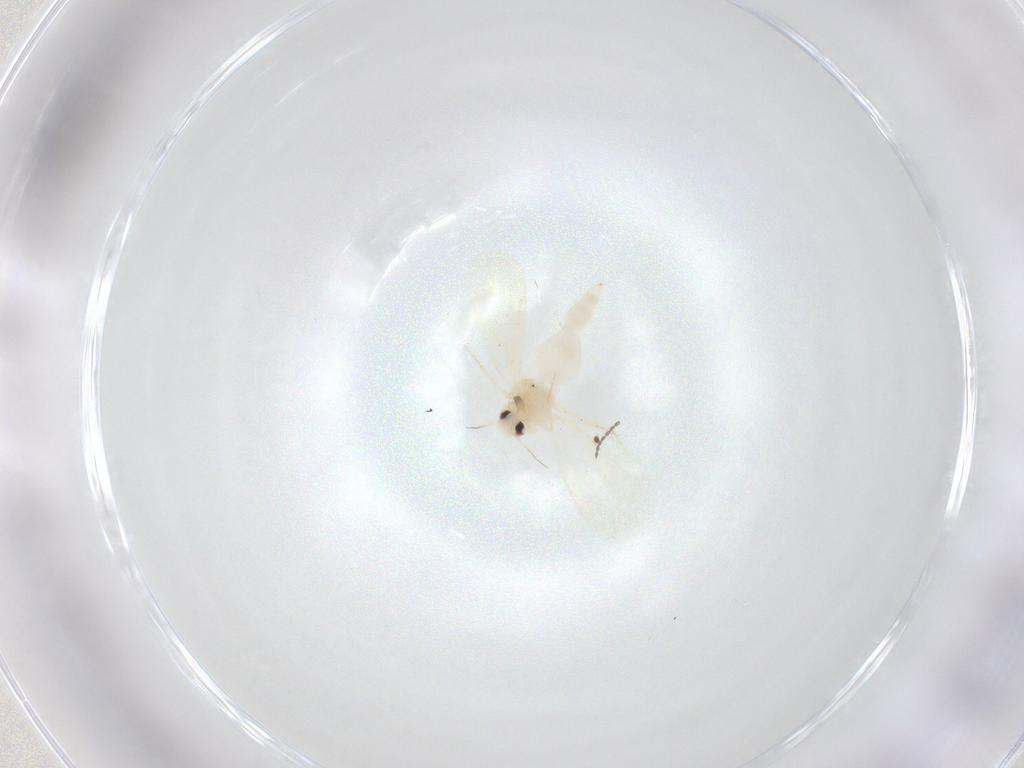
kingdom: Animalia
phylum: Arthropoda
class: Insecta
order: Hemiptera
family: Aleyrodidae
